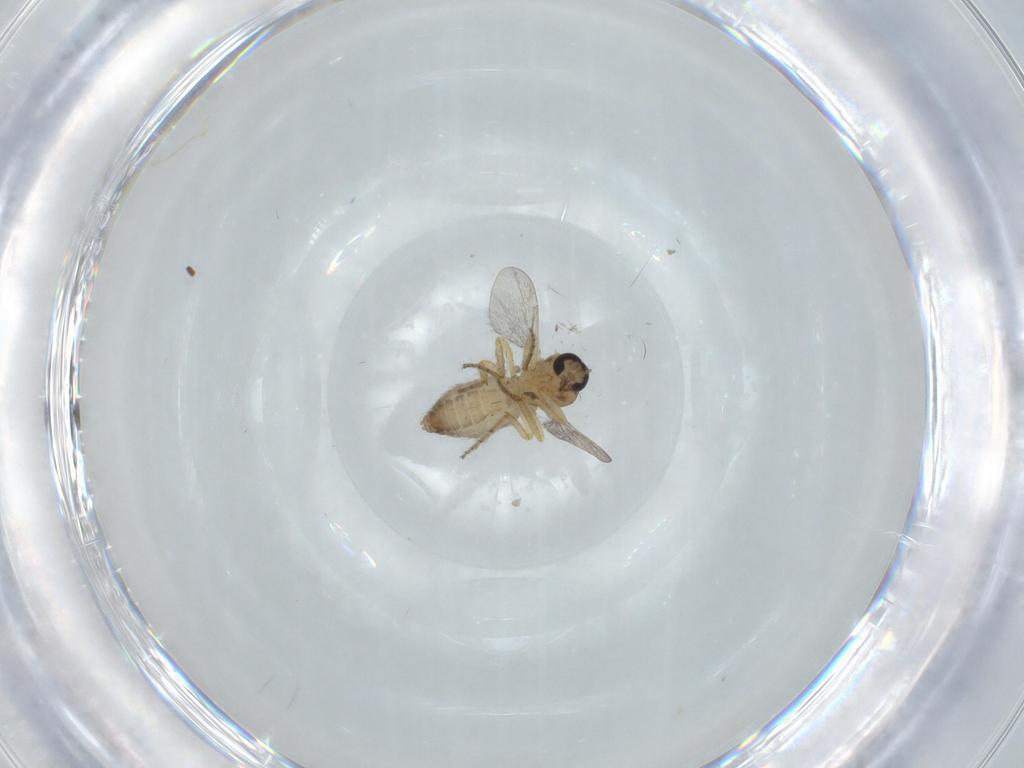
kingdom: Animalia
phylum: Arthropoda
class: Insecta
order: Diptera
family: Ceratopogonidae
